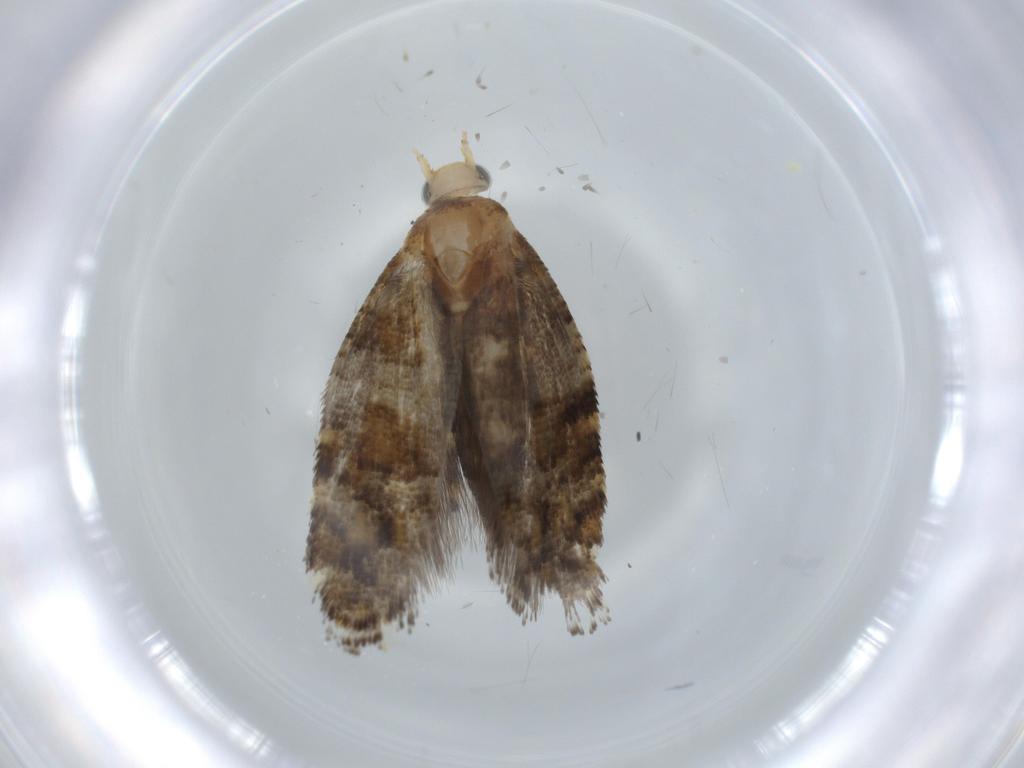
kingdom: Animalia
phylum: Arthropoda
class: Insecta
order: Lepidoptera
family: Glyphipterigidae
